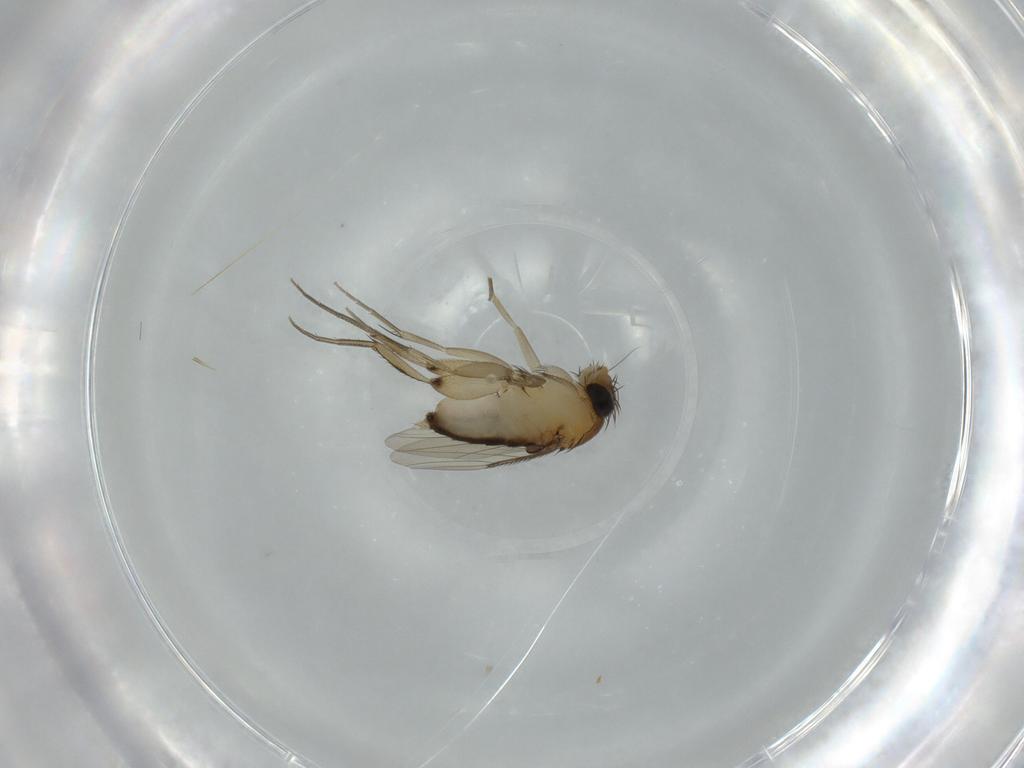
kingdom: Animalia
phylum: Arthropoda
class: Insecta
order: Diptera
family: Phoridae
